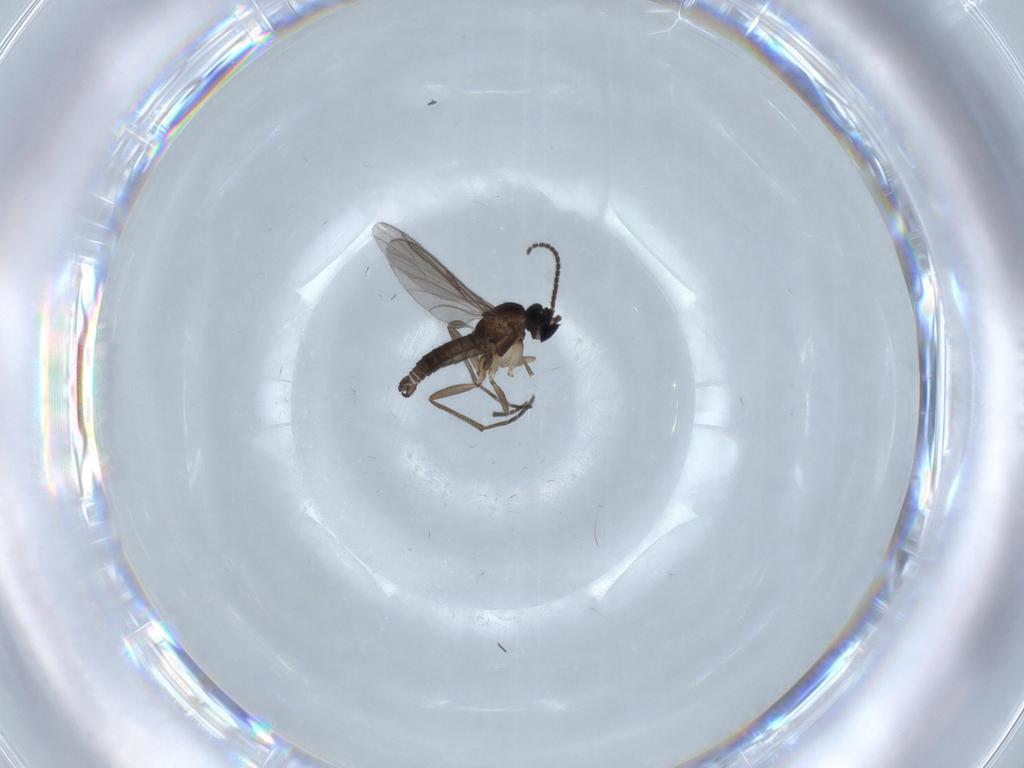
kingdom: Animalia
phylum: Arthropoda
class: Insecta
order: Diptera
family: Sciaridae
